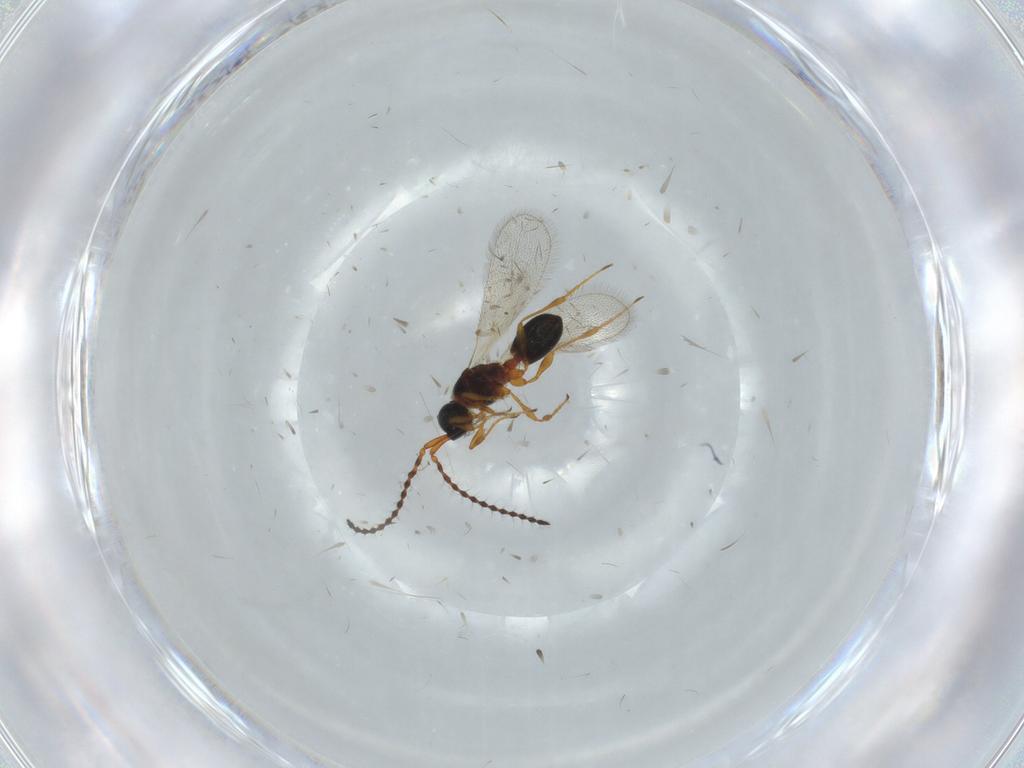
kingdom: Animalia
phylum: Arthropoda
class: Insecta
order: Hymenoptera
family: Diapriidae
